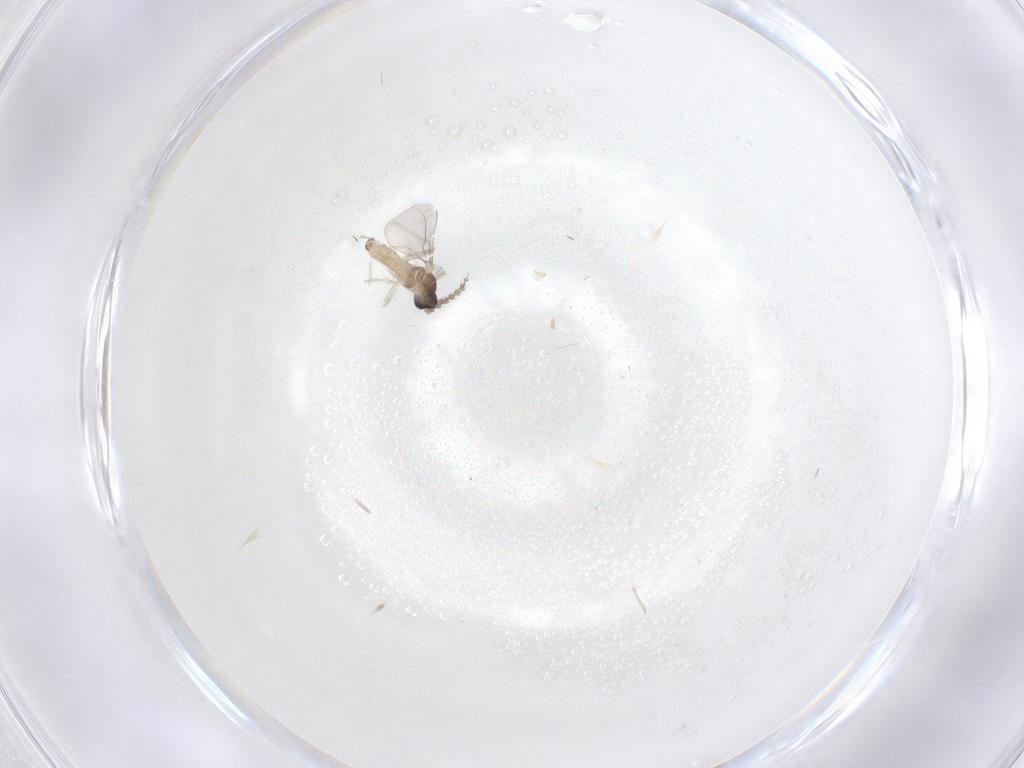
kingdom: Animalia
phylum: Arthropoda
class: Insecta
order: Diptera
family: Cecidomyiidae
